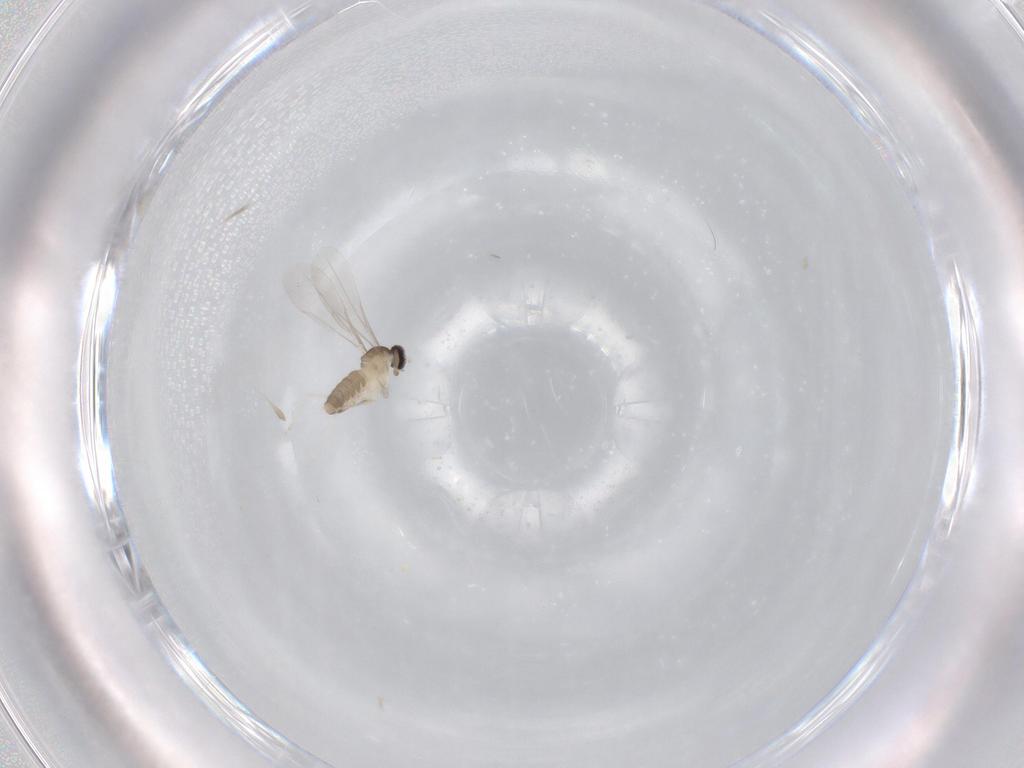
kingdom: Animalia
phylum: Arthropoda
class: Insecta
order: Diptera
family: Cecidomyiidae
